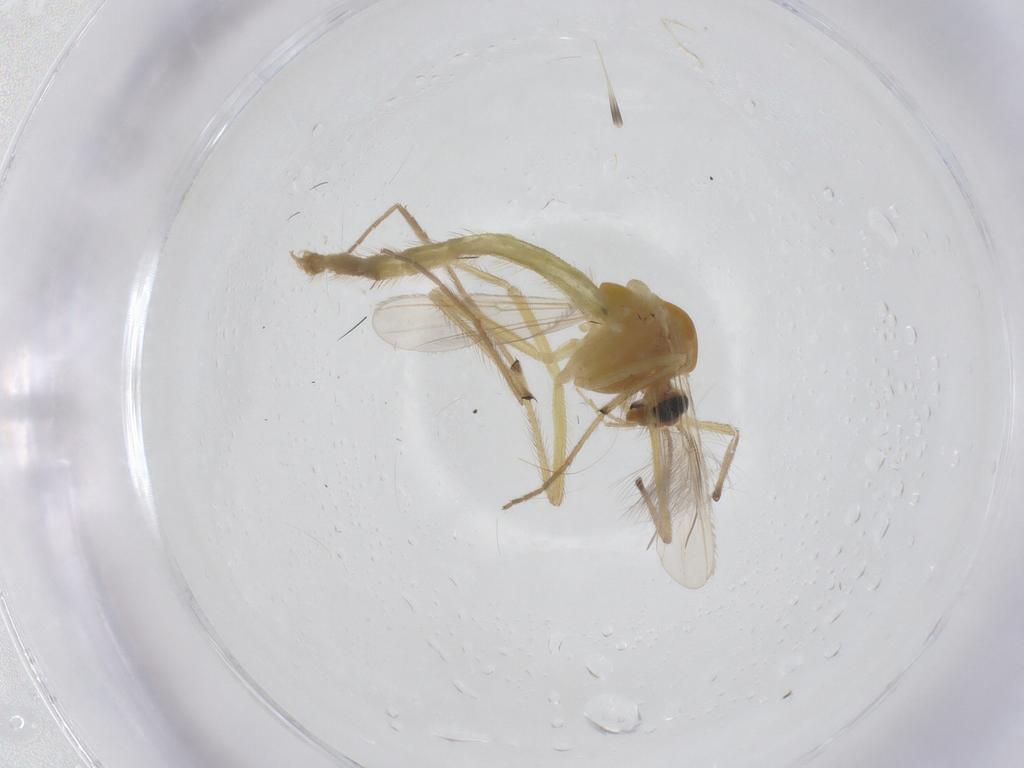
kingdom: Animalia
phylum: Arthropoda
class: Insecta
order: Diptera
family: Chironomidae
